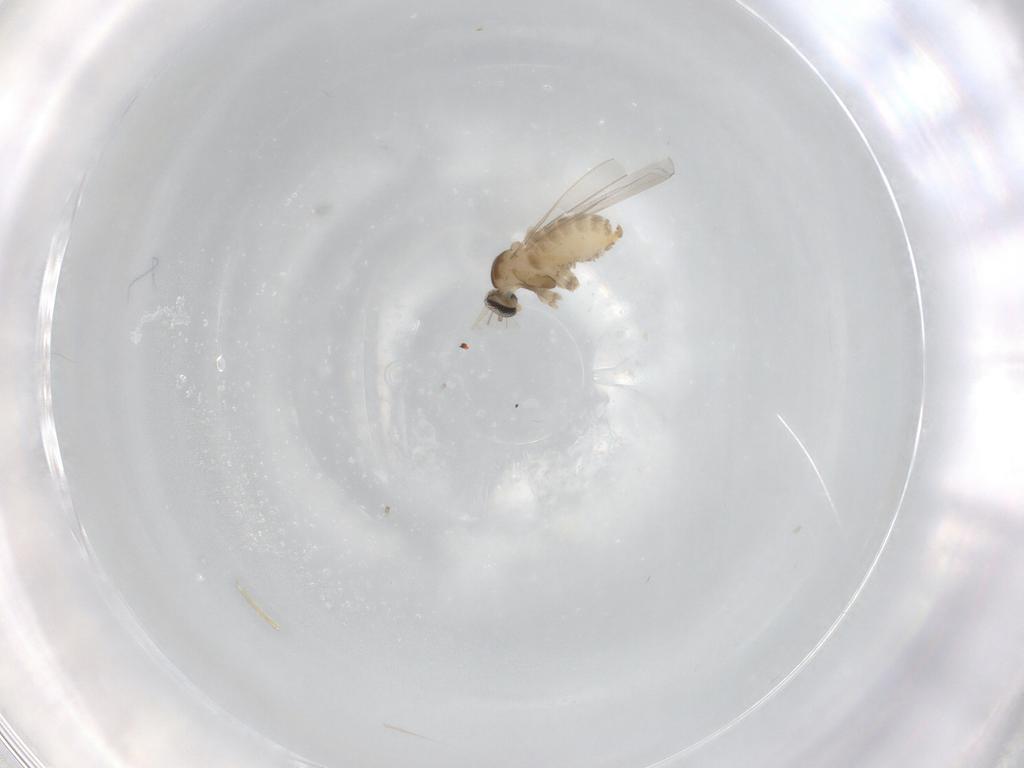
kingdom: Animalia
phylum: Arthropoda
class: Insecta
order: Diptera
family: Cecidomyiidae
